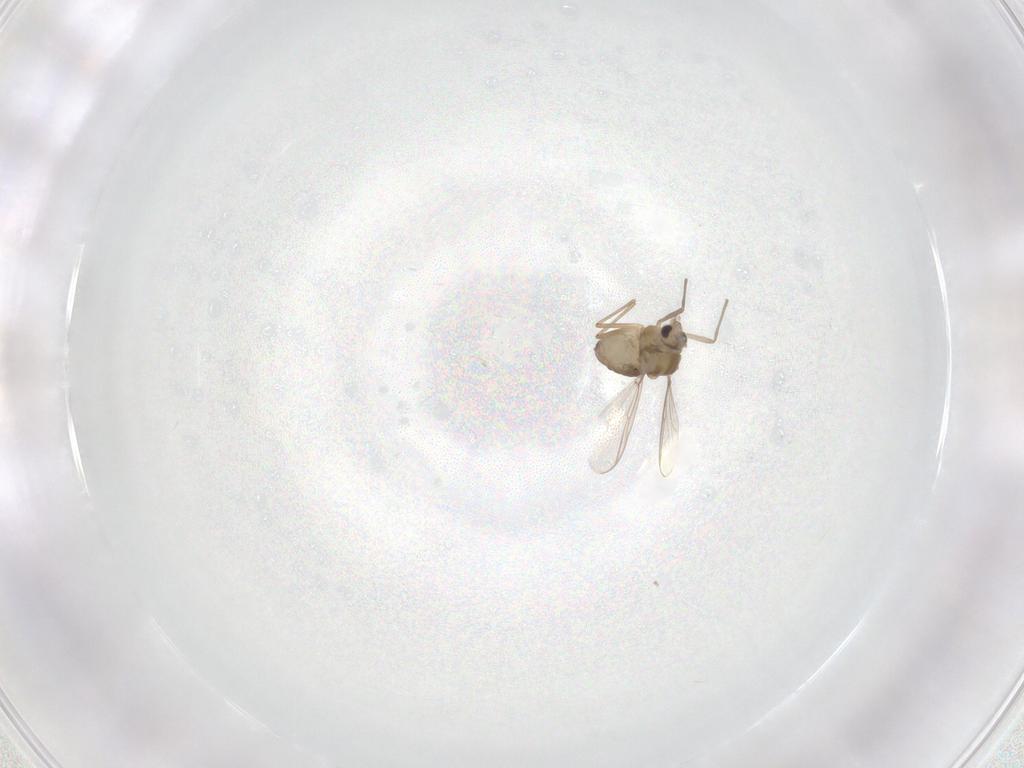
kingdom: Animalia
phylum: Arthropoda
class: Insecta
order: Diptera
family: Chironomidae
